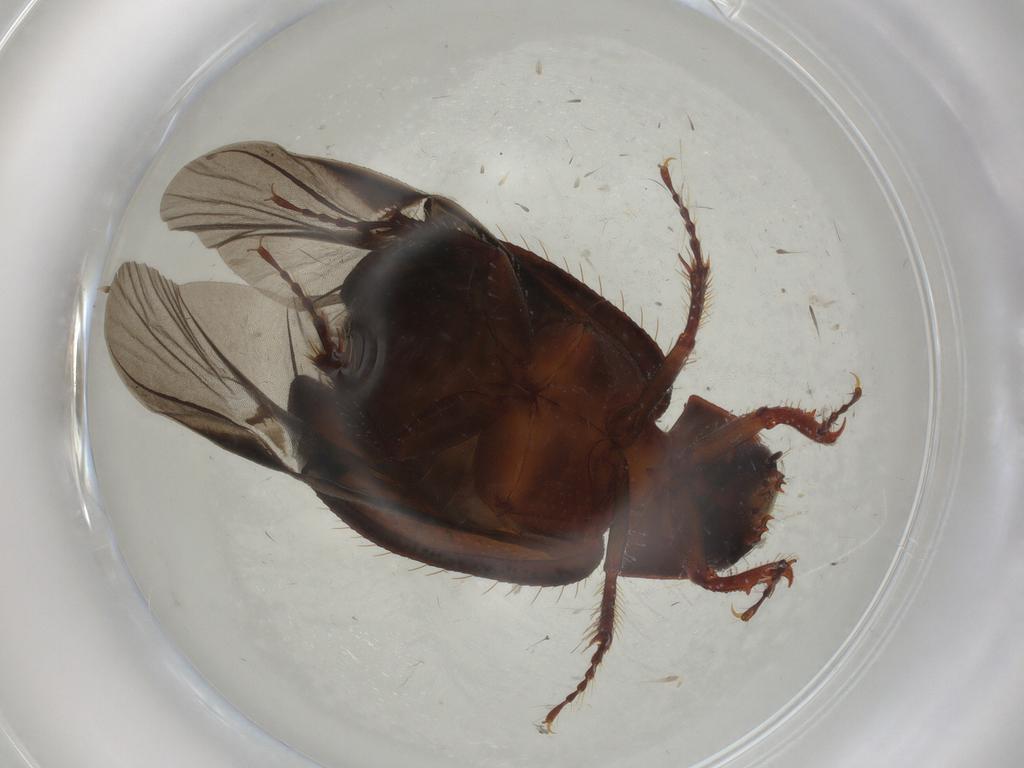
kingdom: Animalia
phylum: Arthropoda
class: Insecta
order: Coleoptera
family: Hybosoridae
